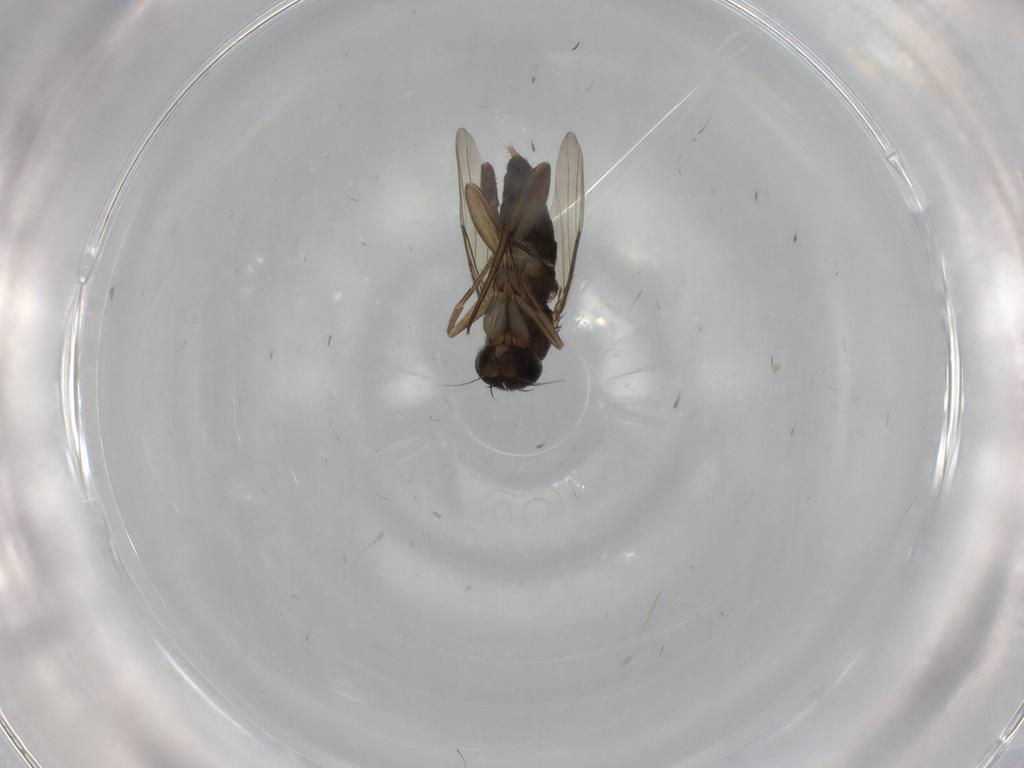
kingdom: Animalia
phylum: Arthropoda
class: Insecta
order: Diptera
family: Phoridae
